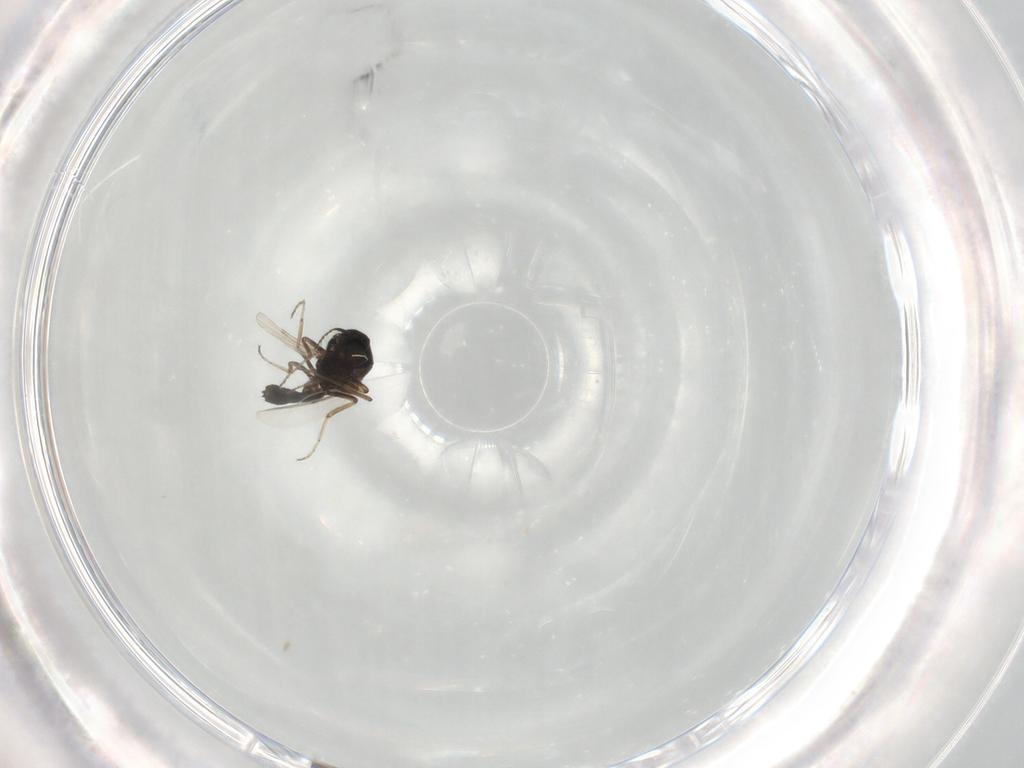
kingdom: Animalia
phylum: Arthropoda
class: Insecta
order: Diptera
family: Ceratopogonidae
